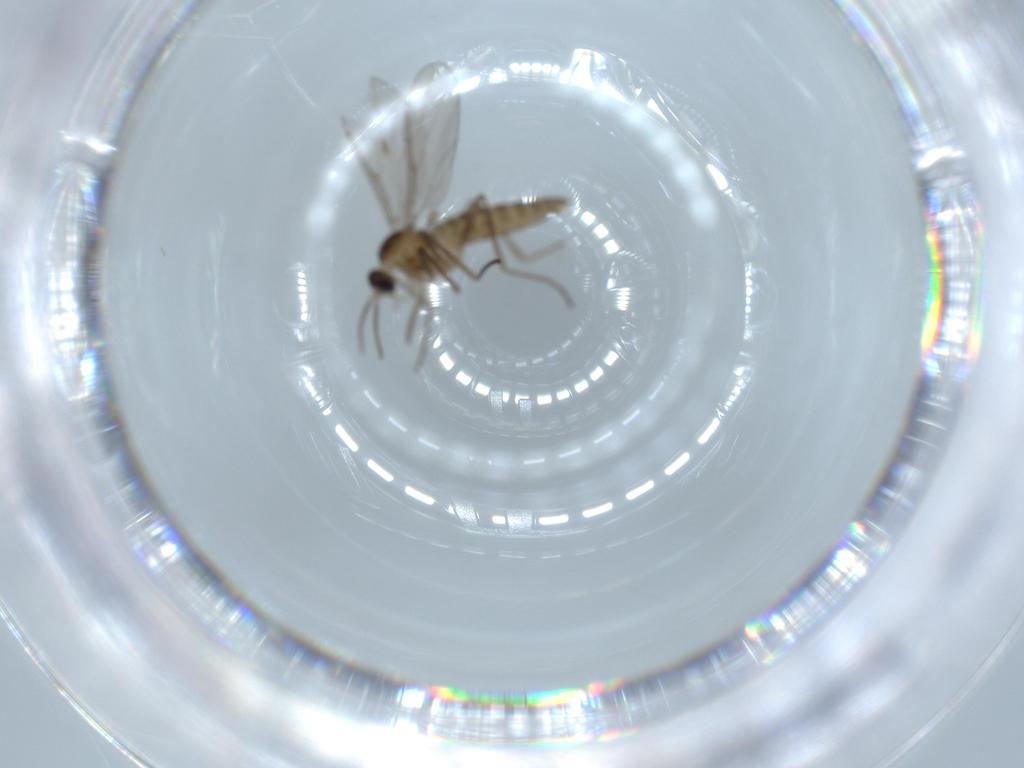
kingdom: Animalia
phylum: Arthropoda
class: Insecta
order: Diptera
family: Cecidomyiidae
